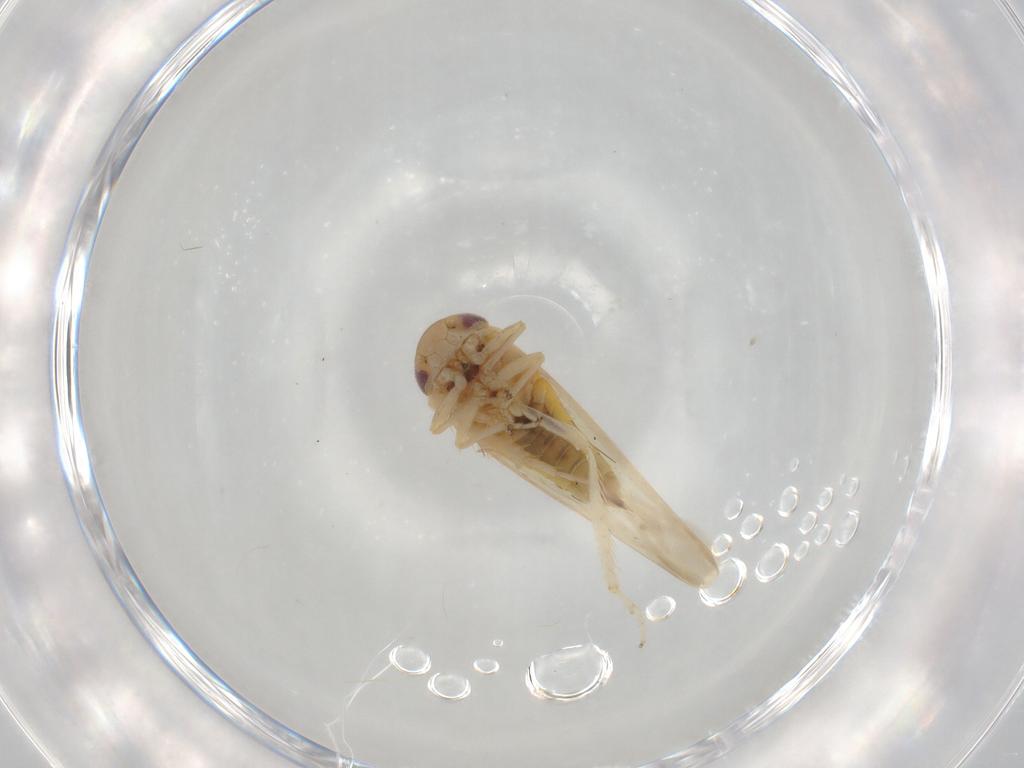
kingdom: Animalia
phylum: Arthropoda
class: Insecta
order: Hemiptera
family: Cicadellidae
